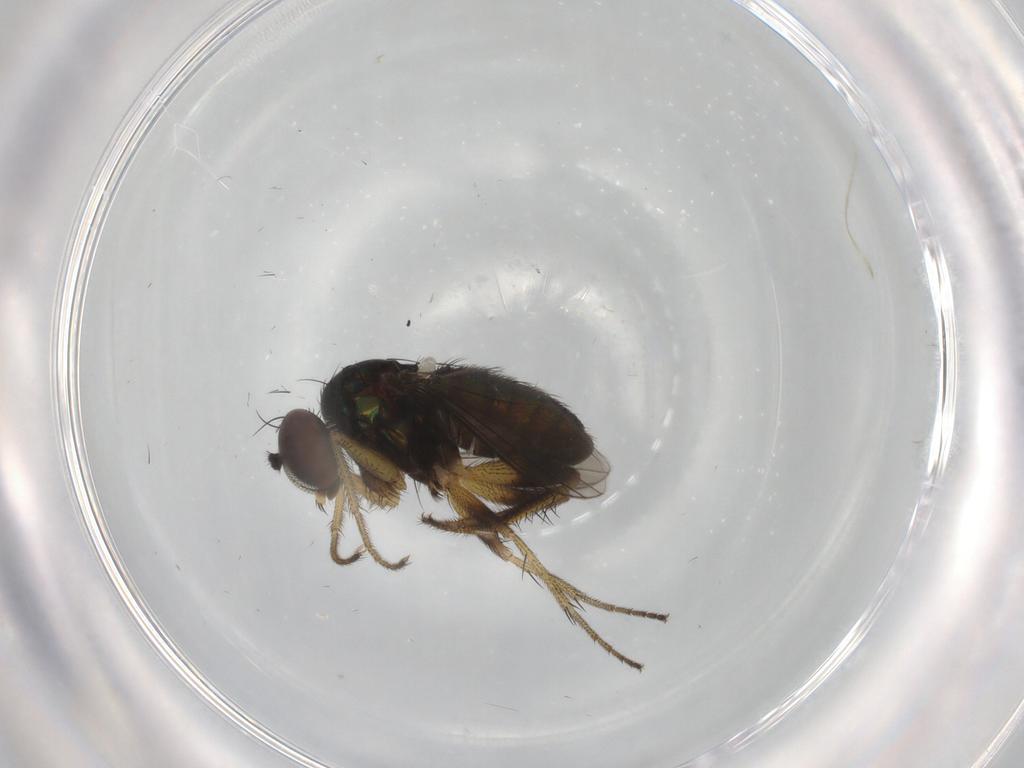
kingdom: Animalia
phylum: Arthropoda
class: Insecta
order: Diptera
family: Dolichopodidae
